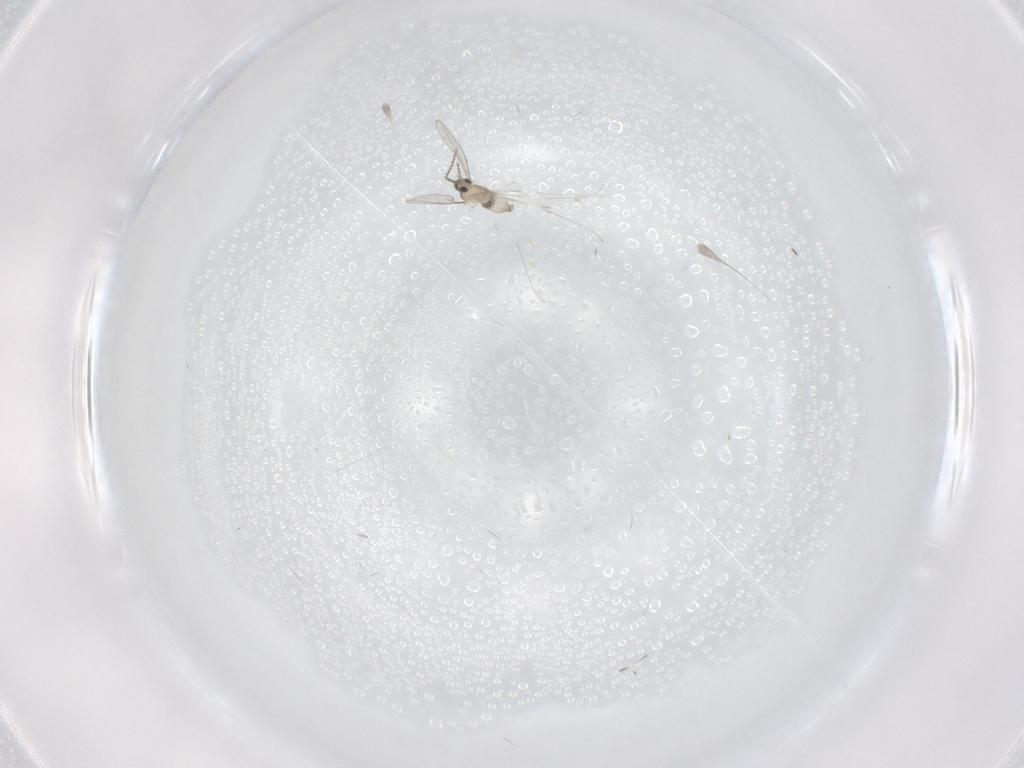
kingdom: Animalia
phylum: Arthropoda
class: Insecta
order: Diptera
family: Cecidomyiidae
